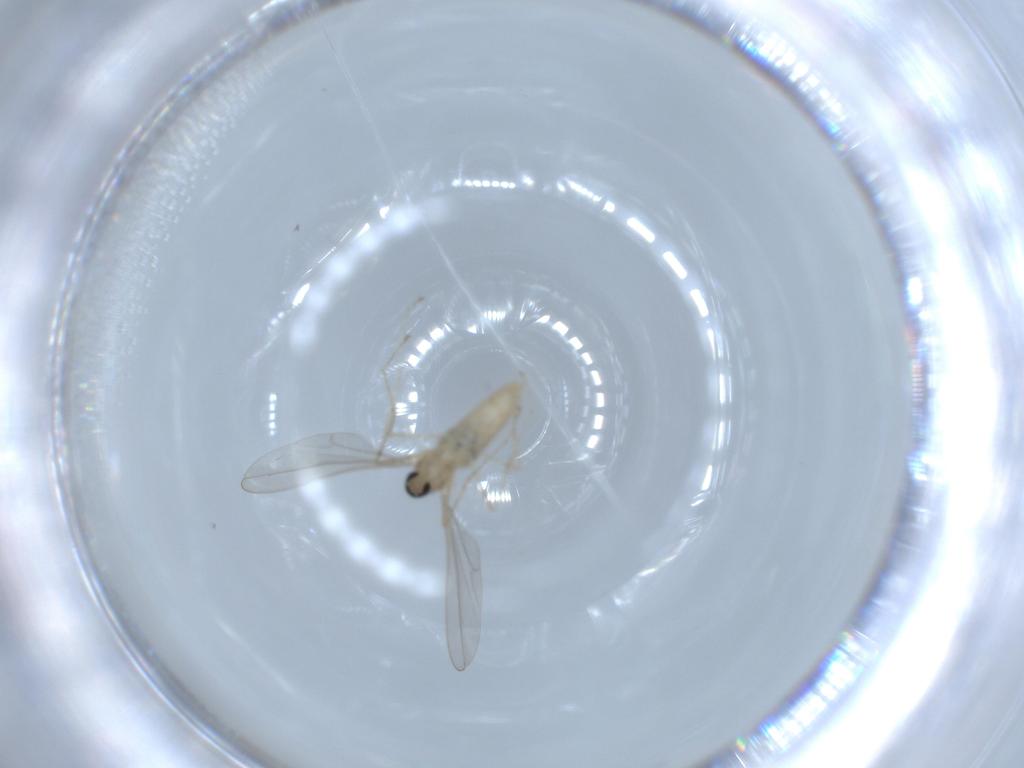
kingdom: Animalia
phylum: Arthropoda
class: Insecta
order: Diptera
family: Cecidomyiidae
